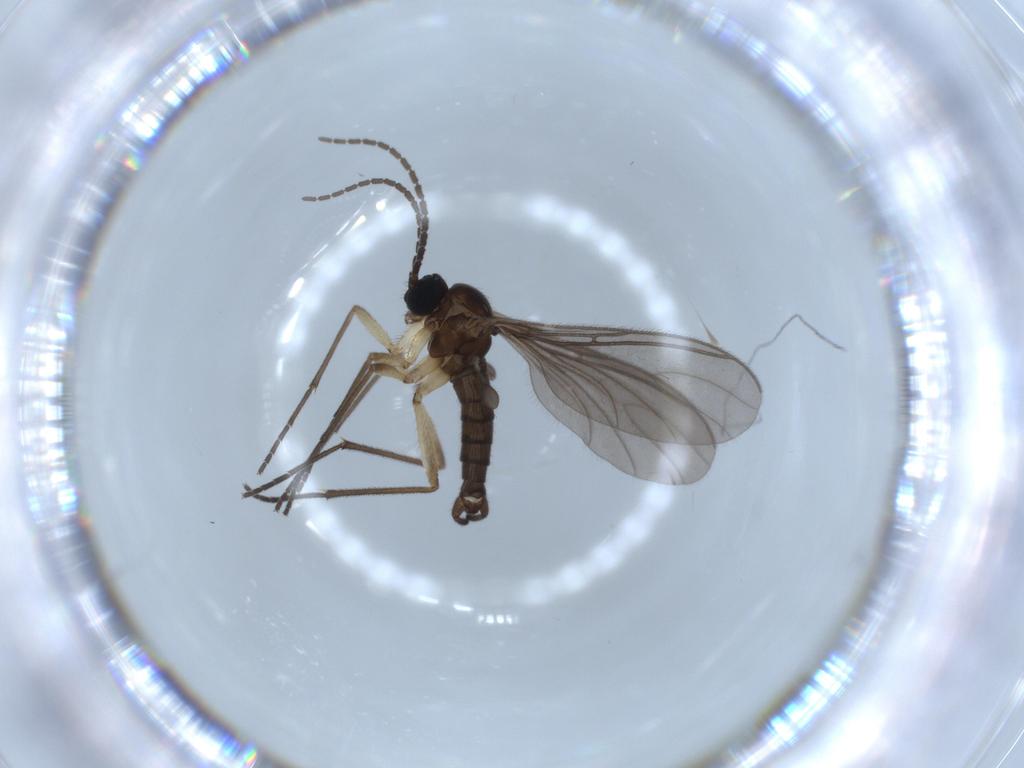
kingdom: Animalia
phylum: Arthropoda
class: Insecta
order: Diptera
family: Sciaridae
